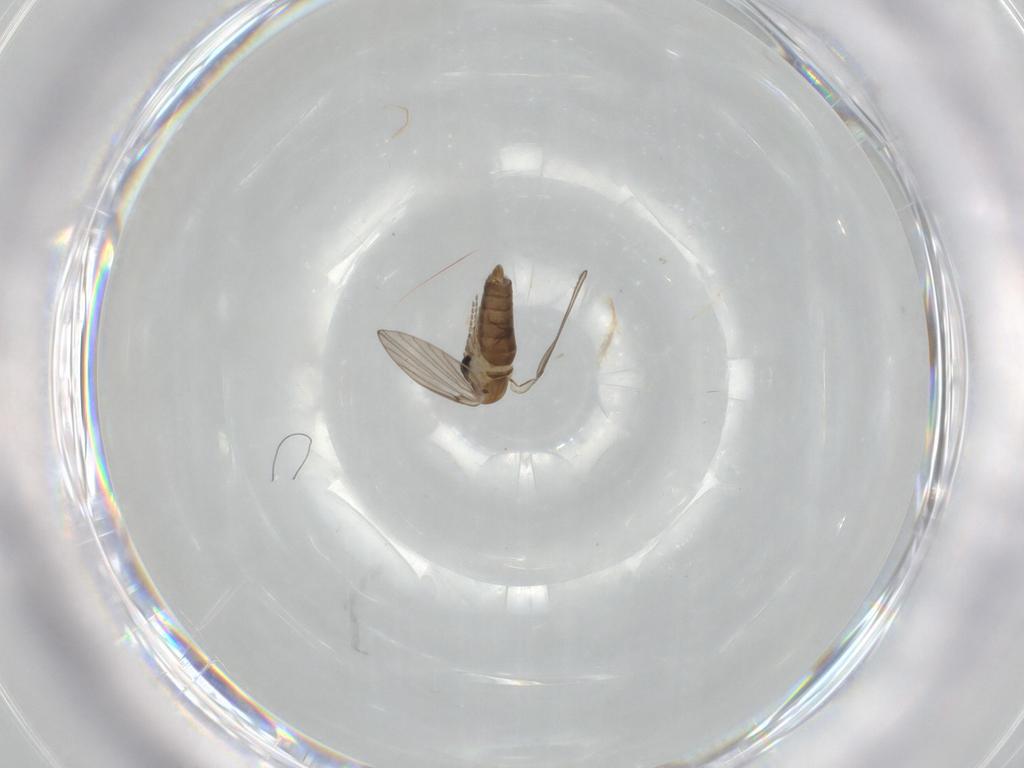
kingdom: Animalia
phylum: Arthropoda
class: Insecta
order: Diptera
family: Psychodidae
